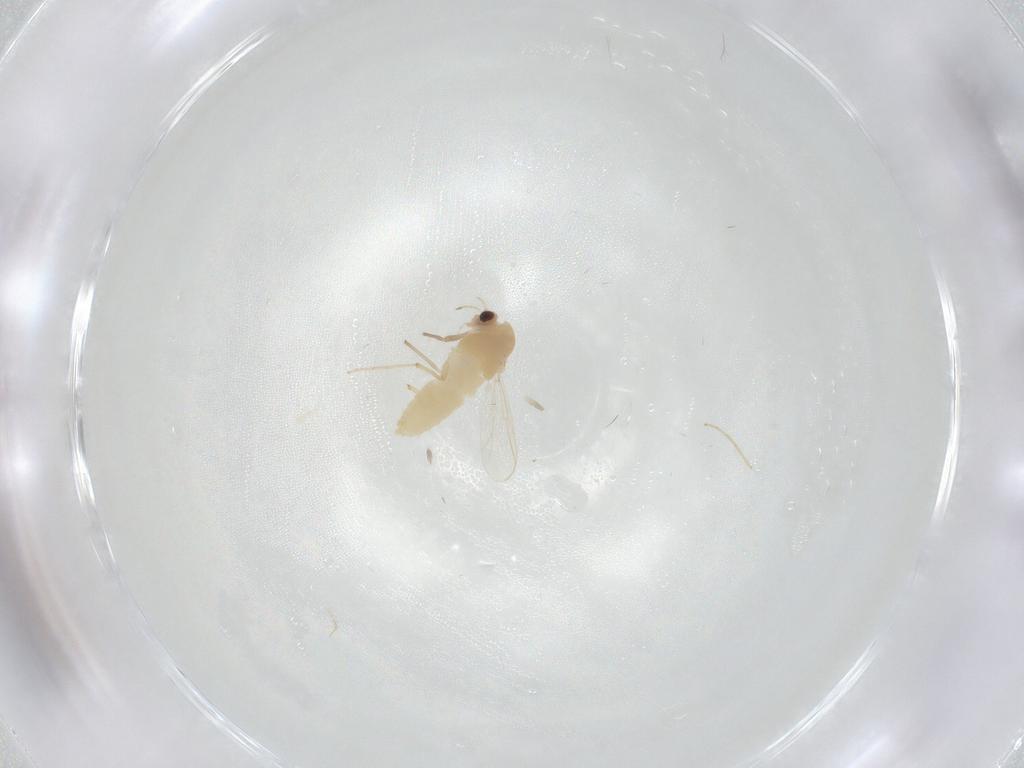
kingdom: Animalia
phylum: Arthropoda
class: Insecta
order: Diptera
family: Chironomidae
